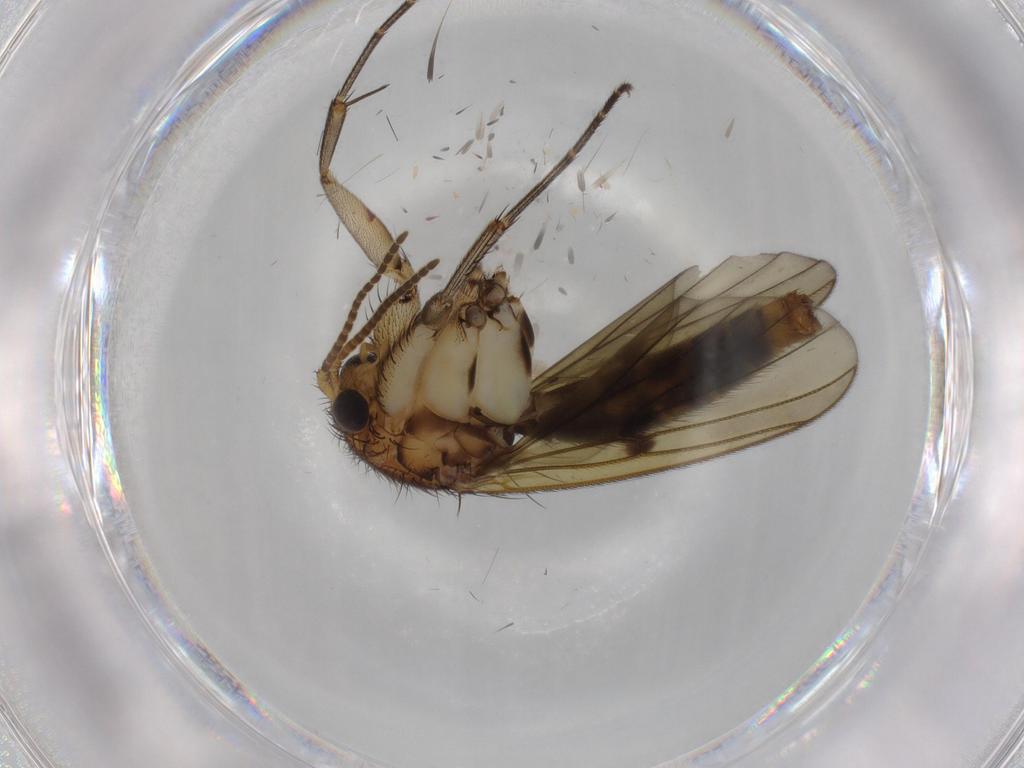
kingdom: Animalia
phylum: Arthropoda
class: Insecta
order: Diptera
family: Cecidomyiidae
